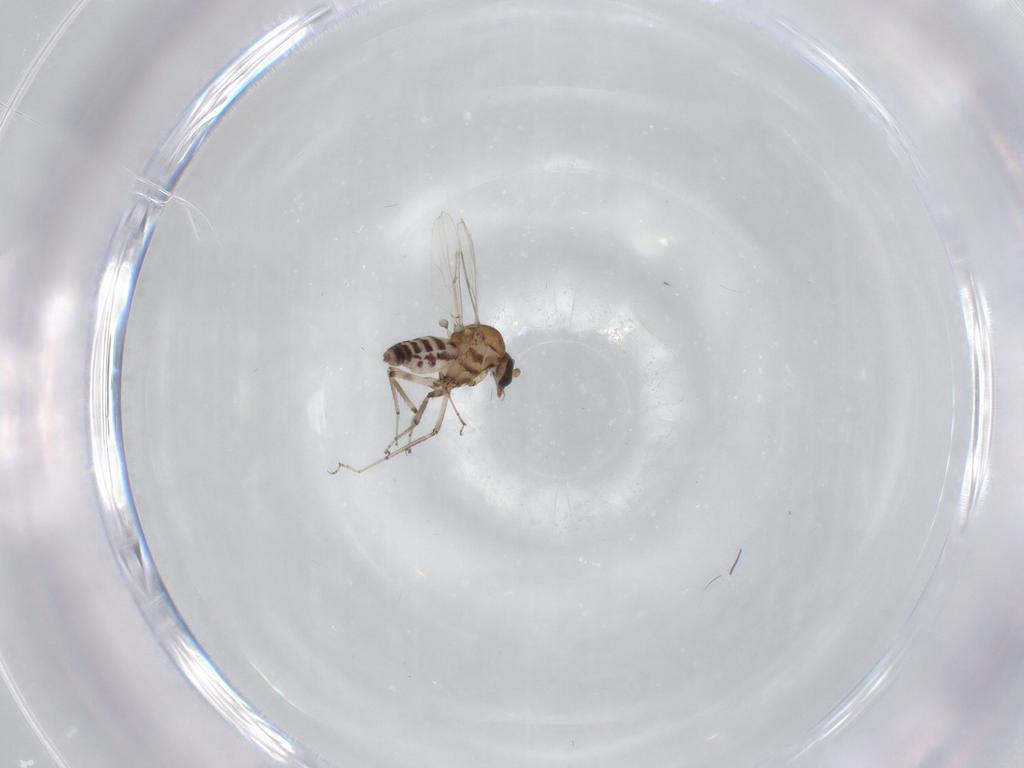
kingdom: Animalia
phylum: Arthropoda
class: Insecta
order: Diptera
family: Ceratopogonidae
